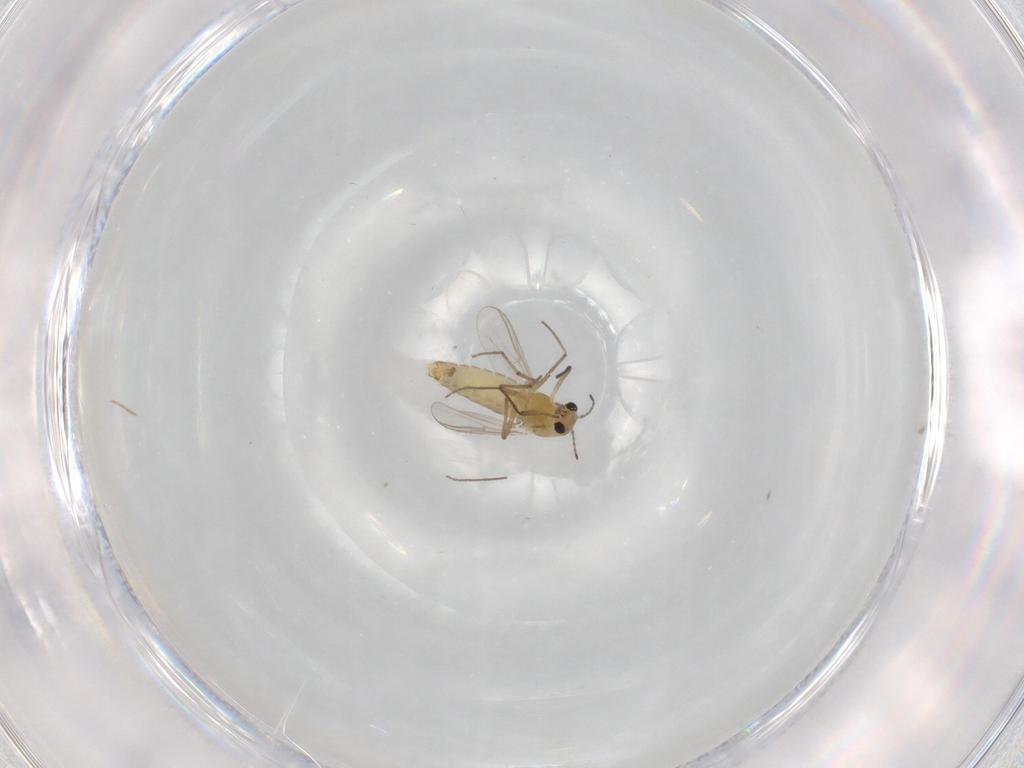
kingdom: Animalia
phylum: Arthropoda
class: Insecta
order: Diptera
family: Chironomidae
